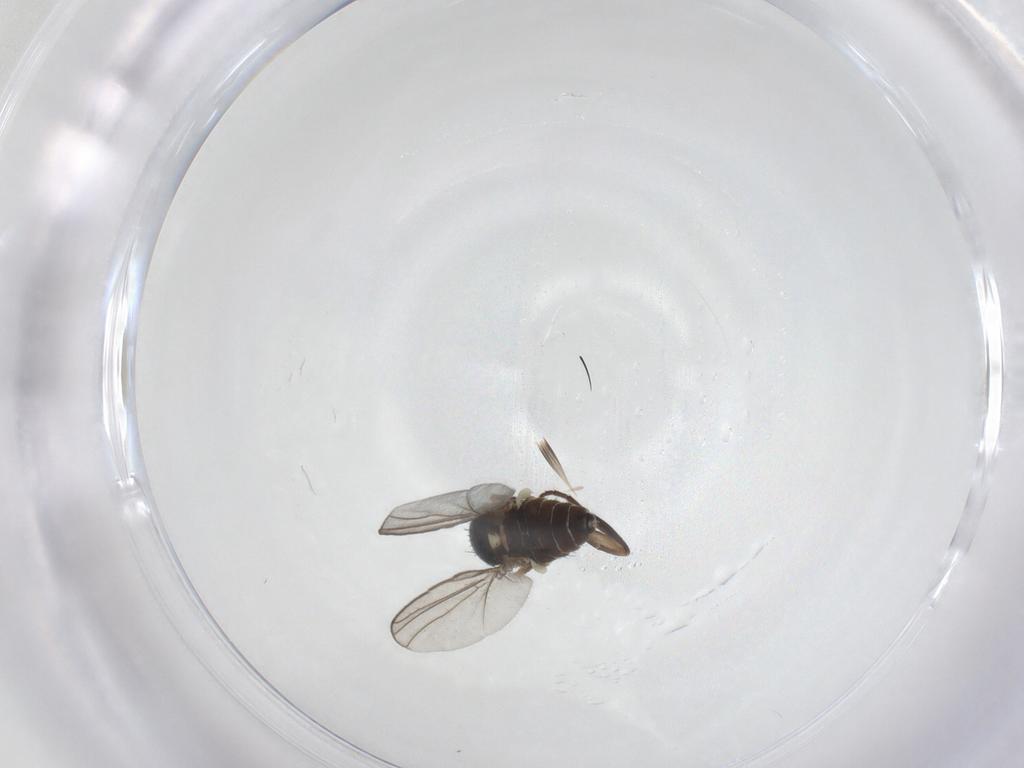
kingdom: Animalia
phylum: Arthropoda
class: Insecta
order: Diptera
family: Agromyzidae
